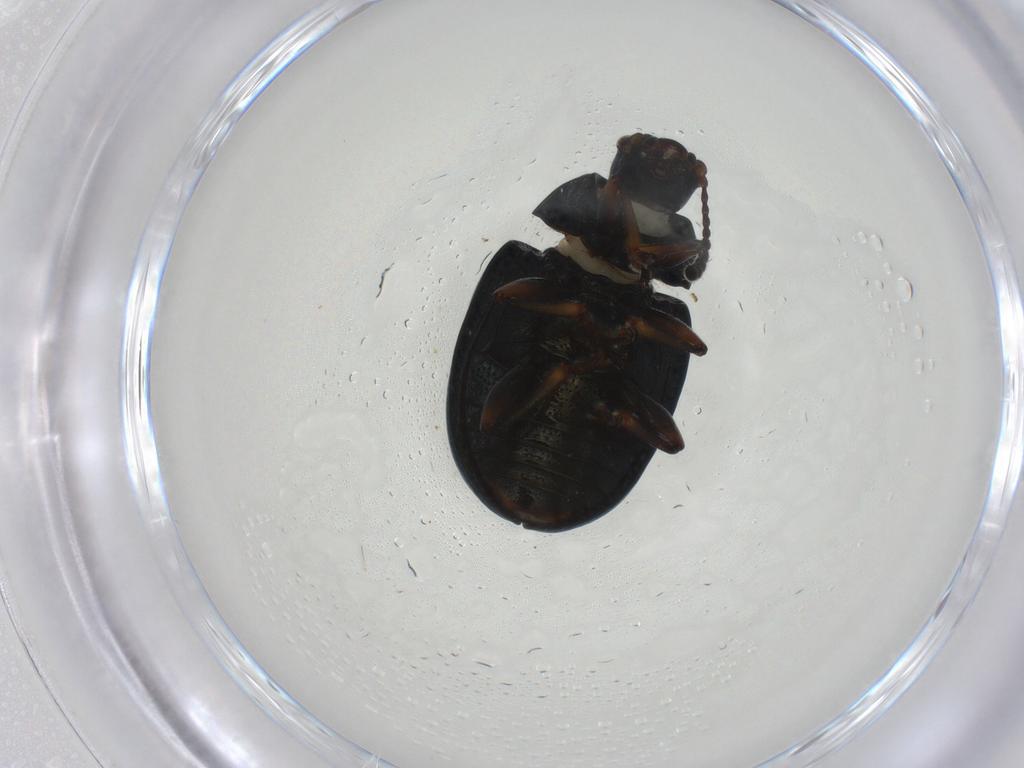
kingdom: Animalia
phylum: Arthropoda
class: Insecta
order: Coleoptera
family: Chrysomelidae
